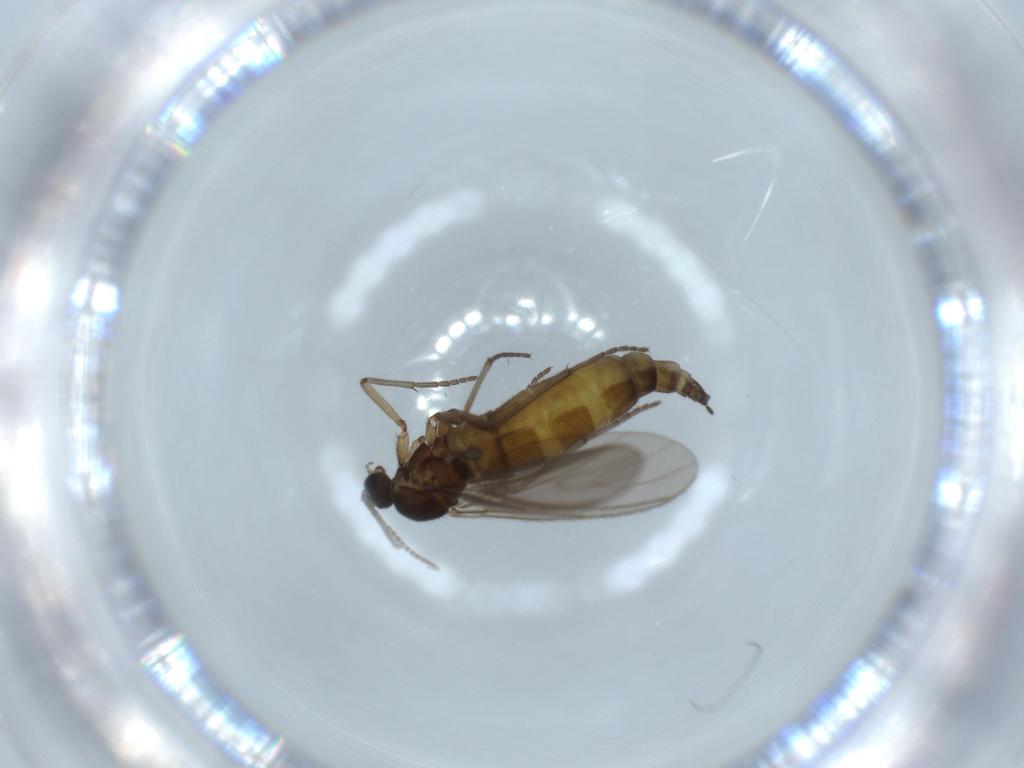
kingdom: Animalia
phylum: Arthropoda
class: Insecta
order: Diptera
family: Sciaridae
